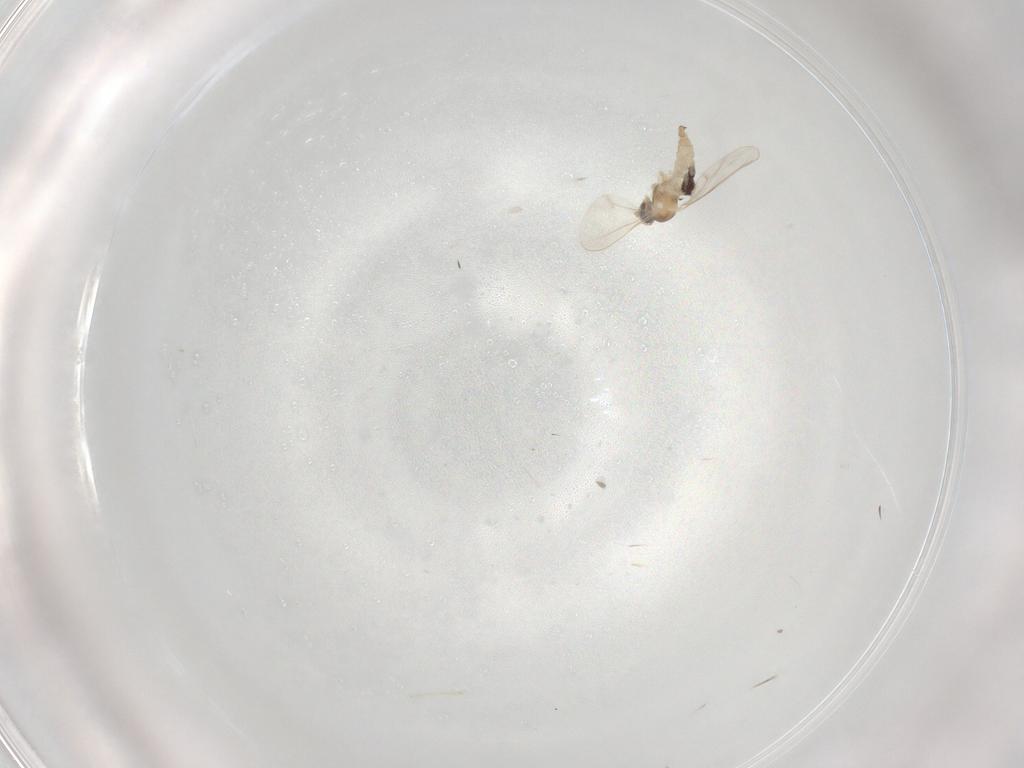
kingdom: Animalia
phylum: Arthropoda
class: Insecta
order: Diptera
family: Cecidomyiidae
